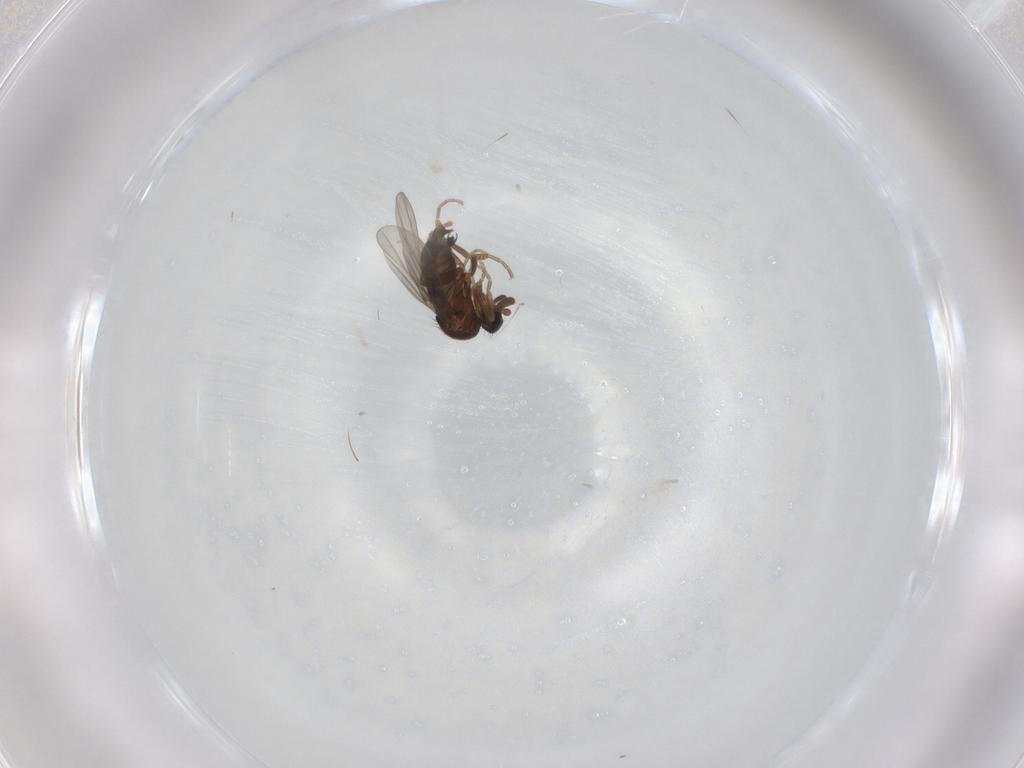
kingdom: Animalia
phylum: Arthropoda
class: Insecta
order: Diptera
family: Phoridae
